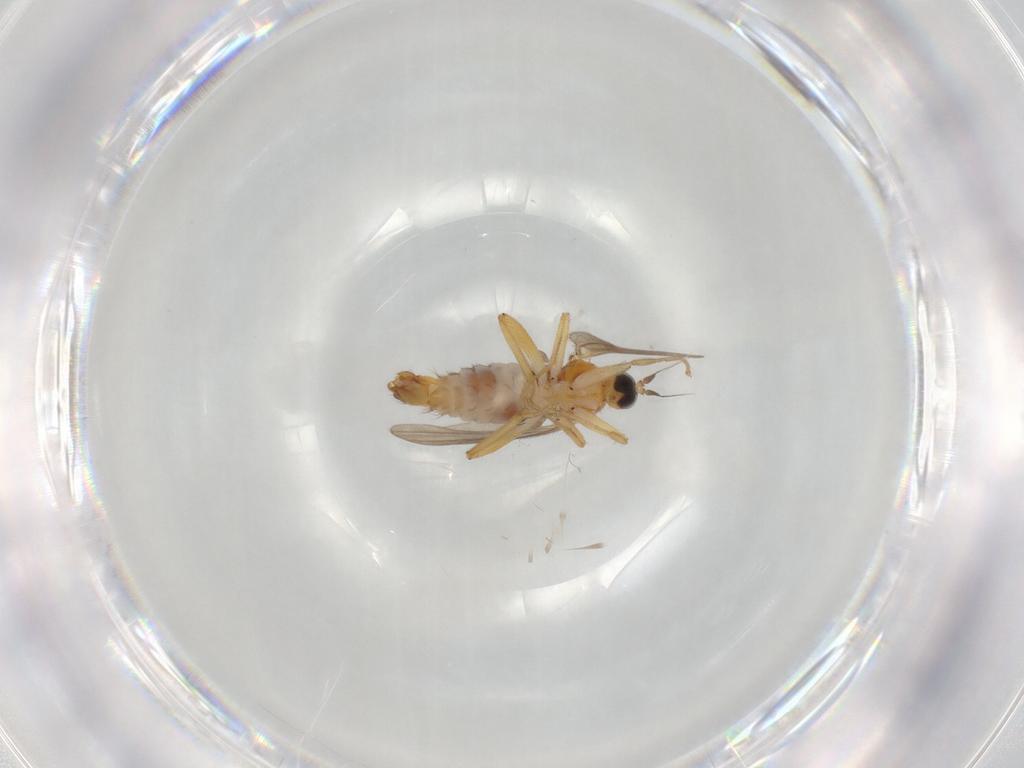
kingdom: Animalia
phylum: Arthropoda
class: Insecta
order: Diptera
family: Hybotidae
